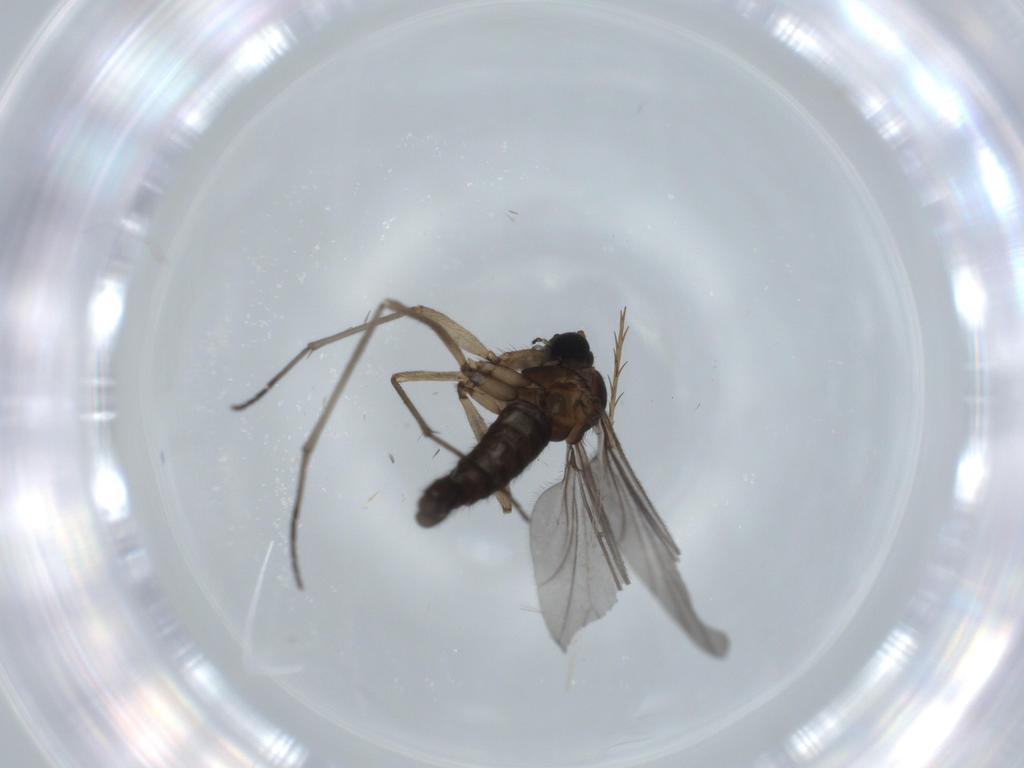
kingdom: Animalia
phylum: Arthropoda
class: Insecta
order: Diptera
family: Sciaridae
